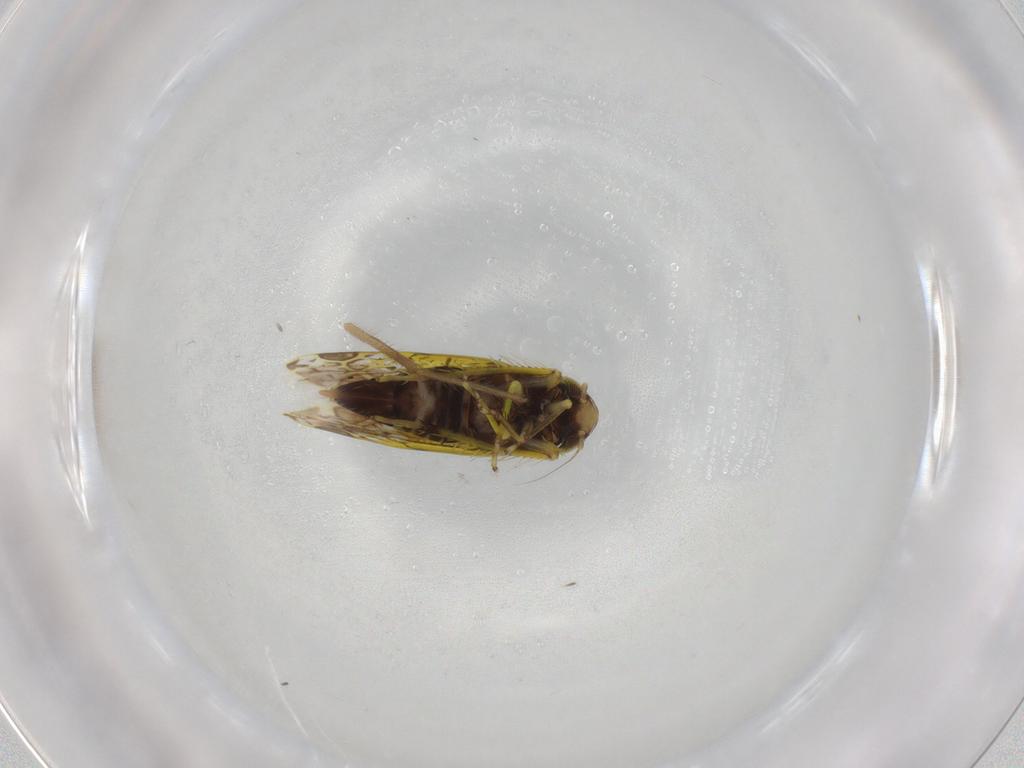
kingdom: Animalia
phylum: Arthropoda
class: Insecta
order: Hemiptera
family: Cicadellidae
